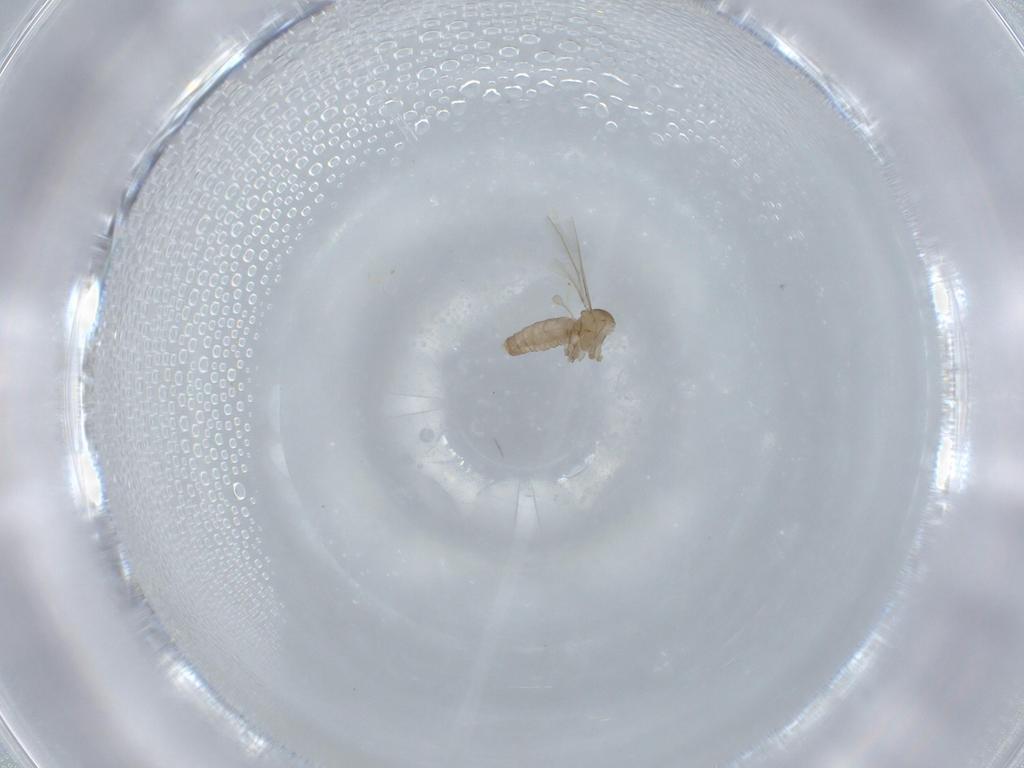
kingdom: Animalia
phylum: Arthropoda
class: Insecta
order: Diptera
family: Cecidomyiidae
